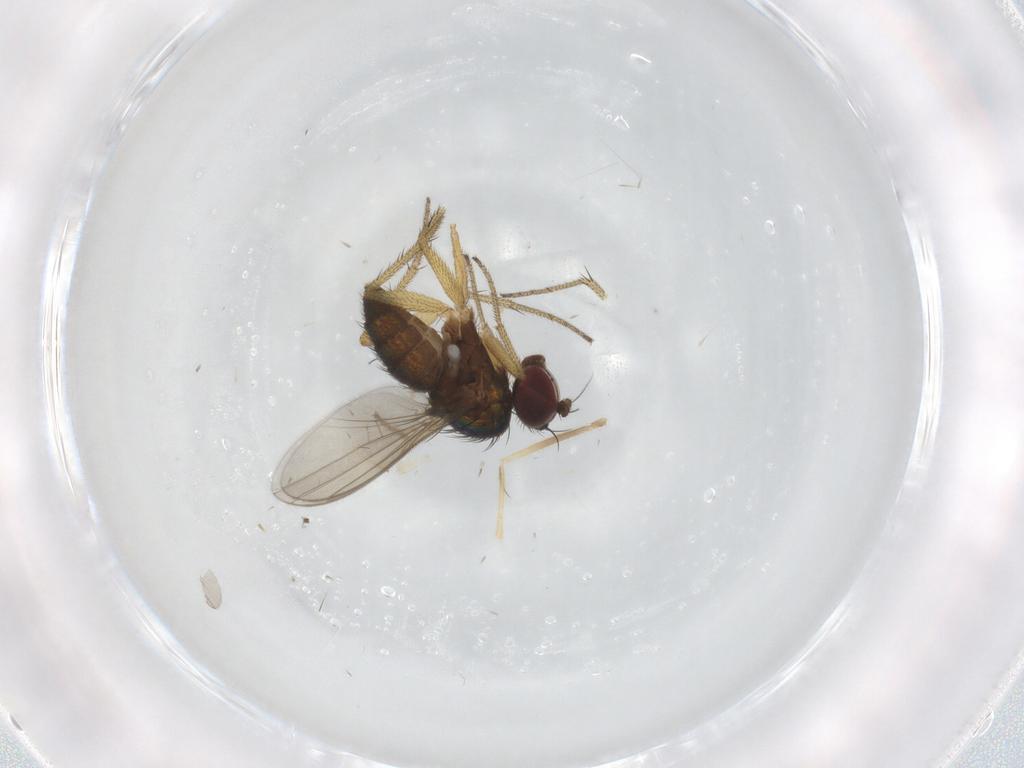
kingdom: Animalia
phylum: Arthropoda
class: Insecta
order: Diptera
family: Dolichopodidae
